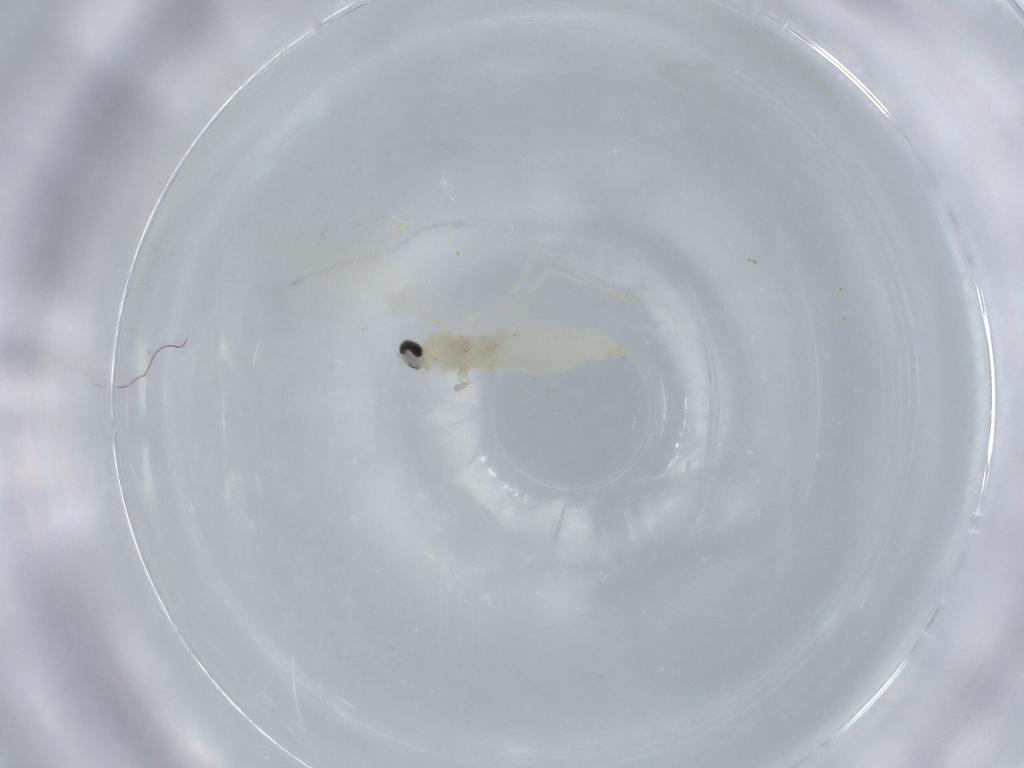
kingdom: Animalia
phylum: Arthropoda
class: Insecta
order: Diptera
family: Cecidomyiidae
